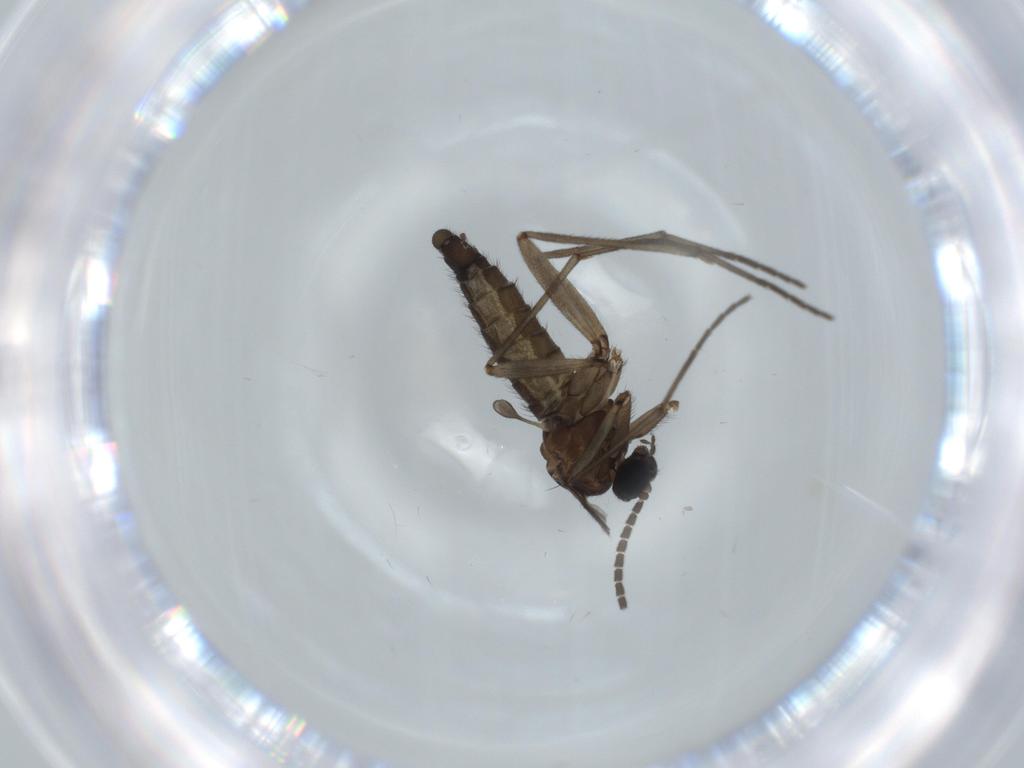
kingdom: Animalia
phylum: Arthropoda
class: Insecta
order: Diptera
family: Sciaridae
